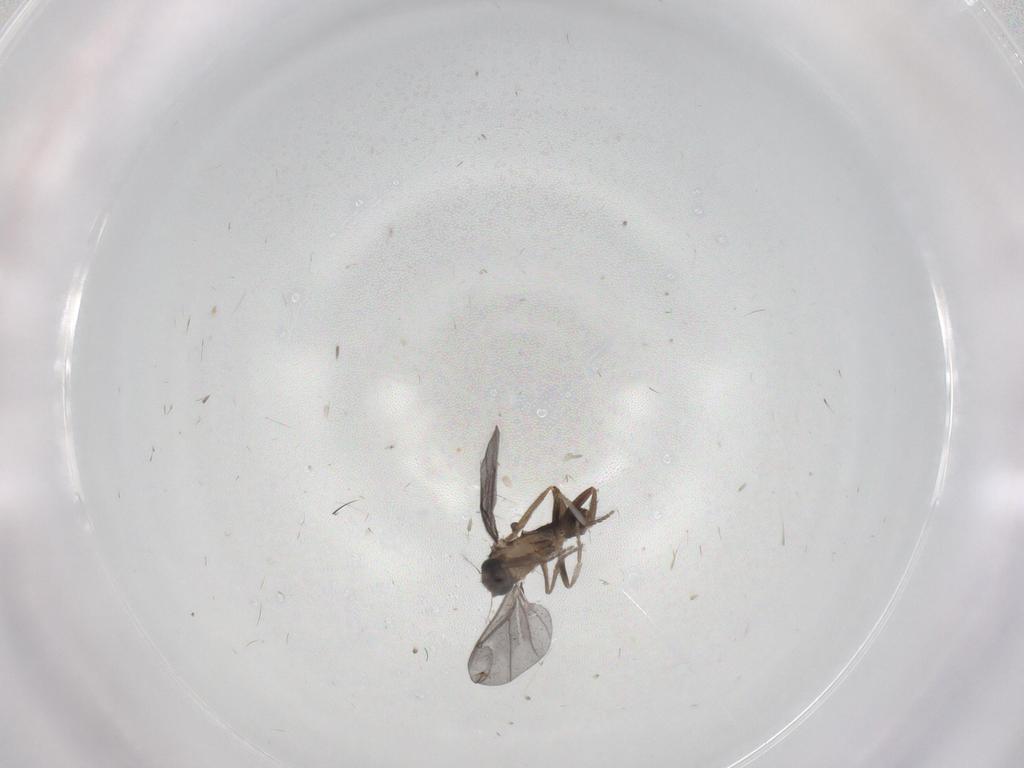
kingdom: Animalia
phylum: Arthropoda
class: Insecta
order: Diptera
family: Phoridae
